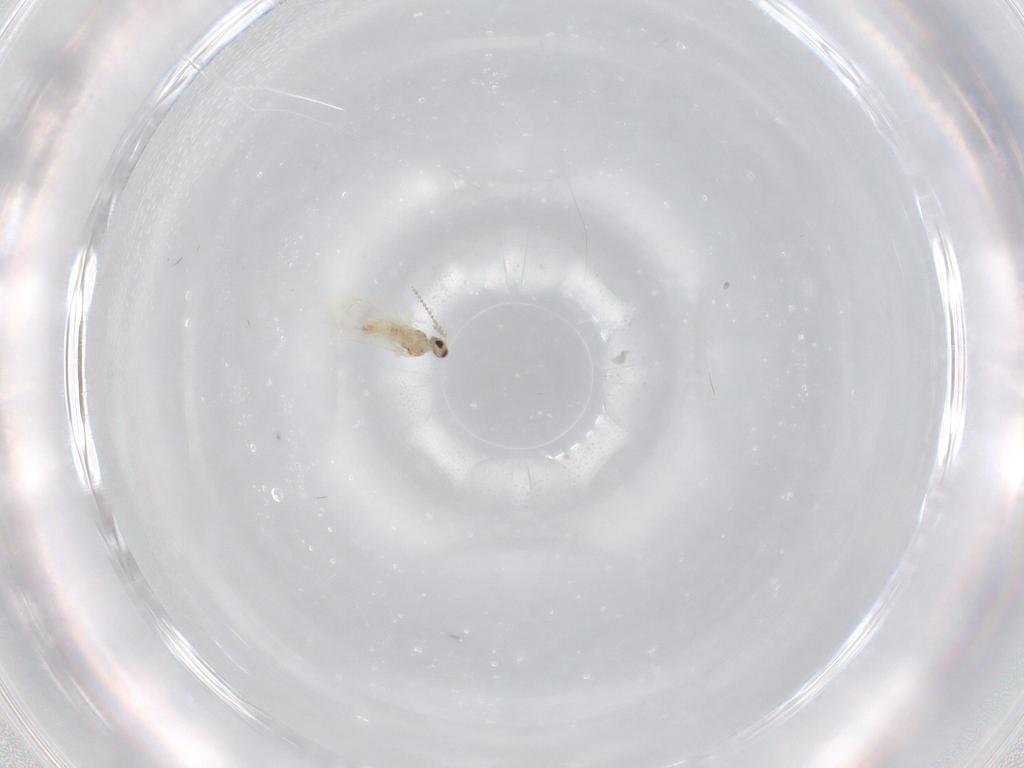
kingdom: Animalia
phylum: Arthropoda
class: Insecta
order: Diptera
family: Cecidomyiidae
